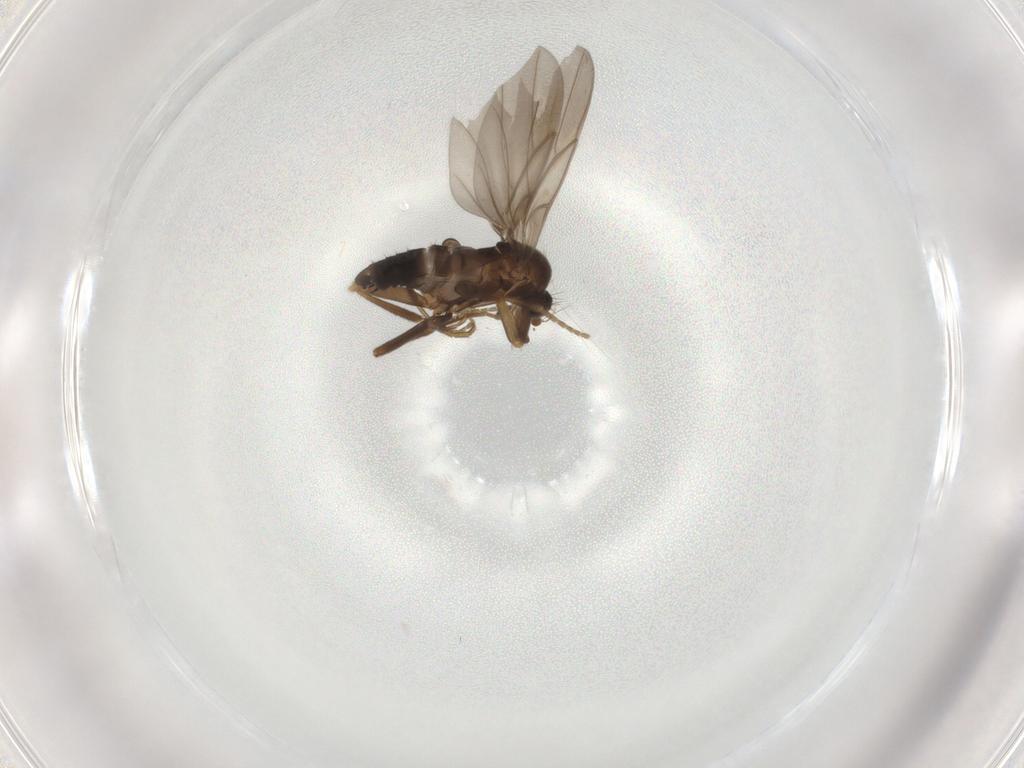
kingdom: Animalia
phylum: Arthropoda
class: Insecta
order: Diptera
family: Phoridae
